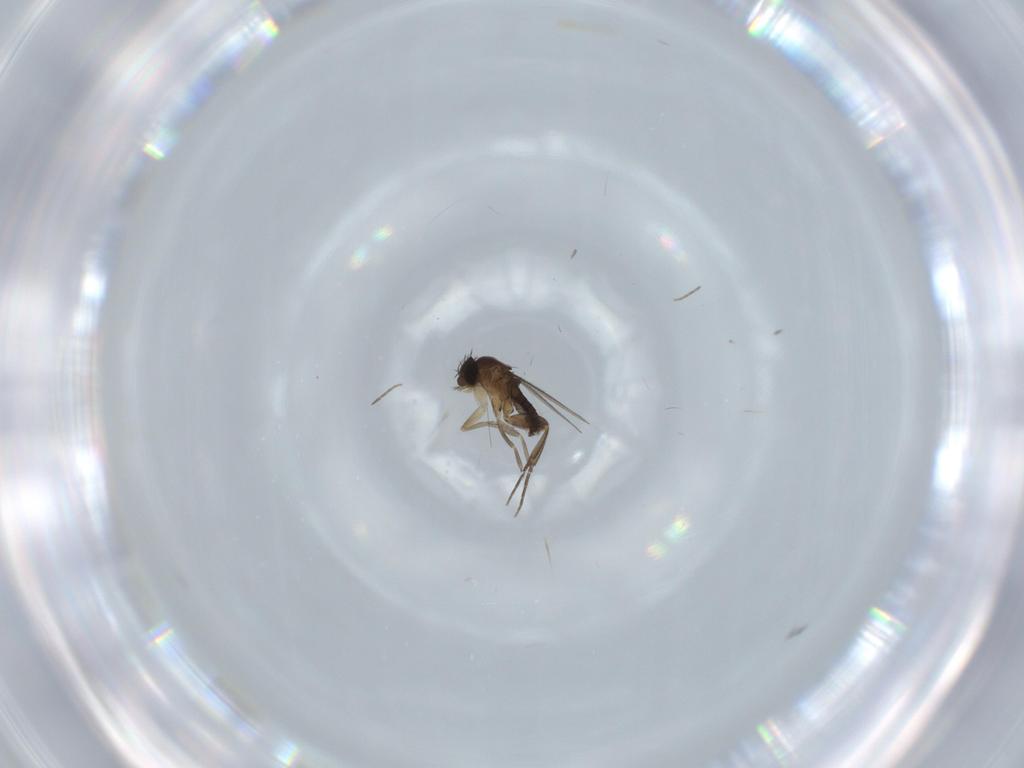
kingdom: Animalia
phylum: Arthropoda
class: Insecta
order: Diptera
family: Phoridae
